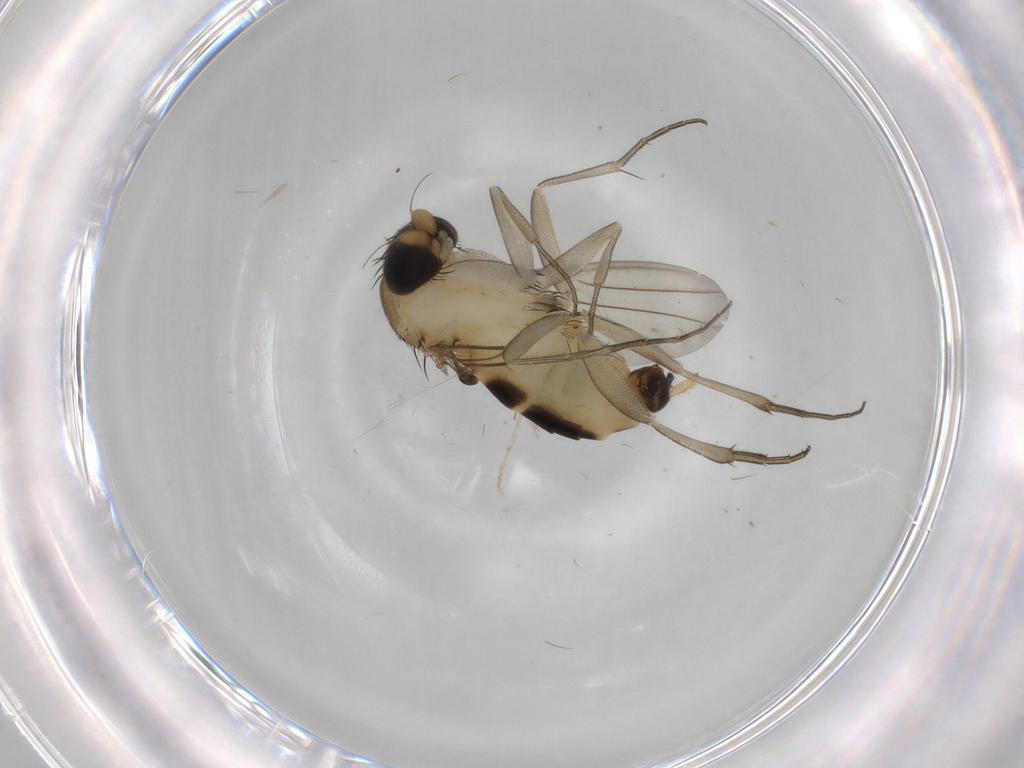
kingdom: Animalia
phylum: Arthropoda
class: Insecta
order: Diptera
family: Phoridae
